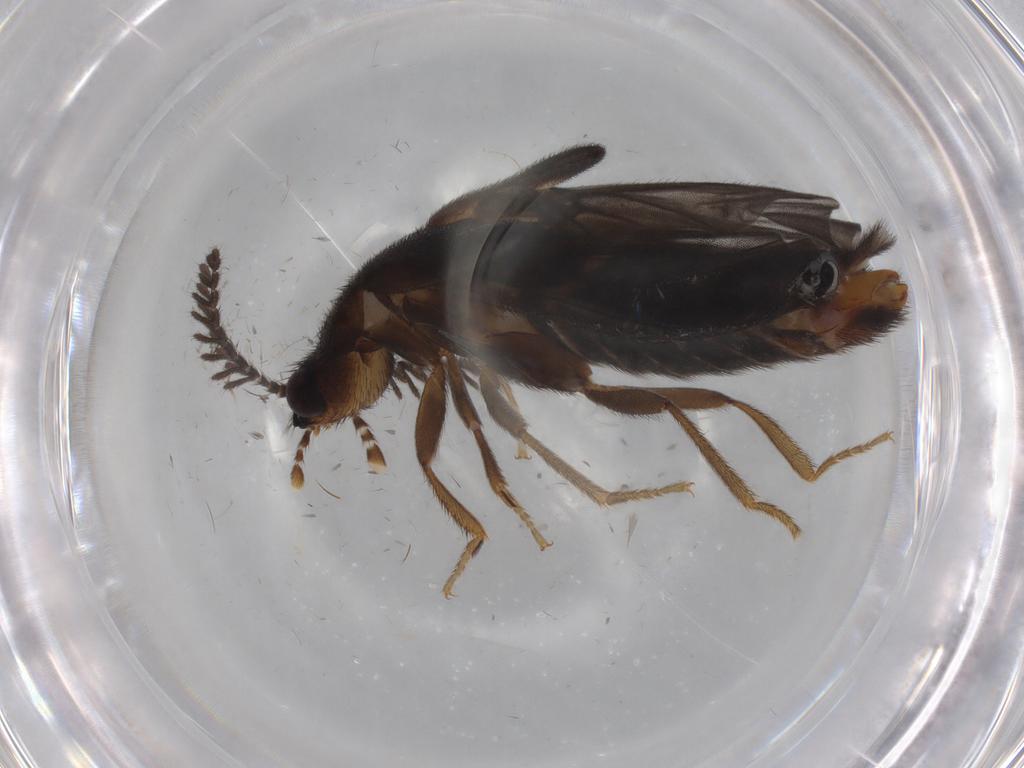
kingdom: Animalia
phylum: Arthropoda
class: Insecta
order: Coleoptera
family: Phengodidae
